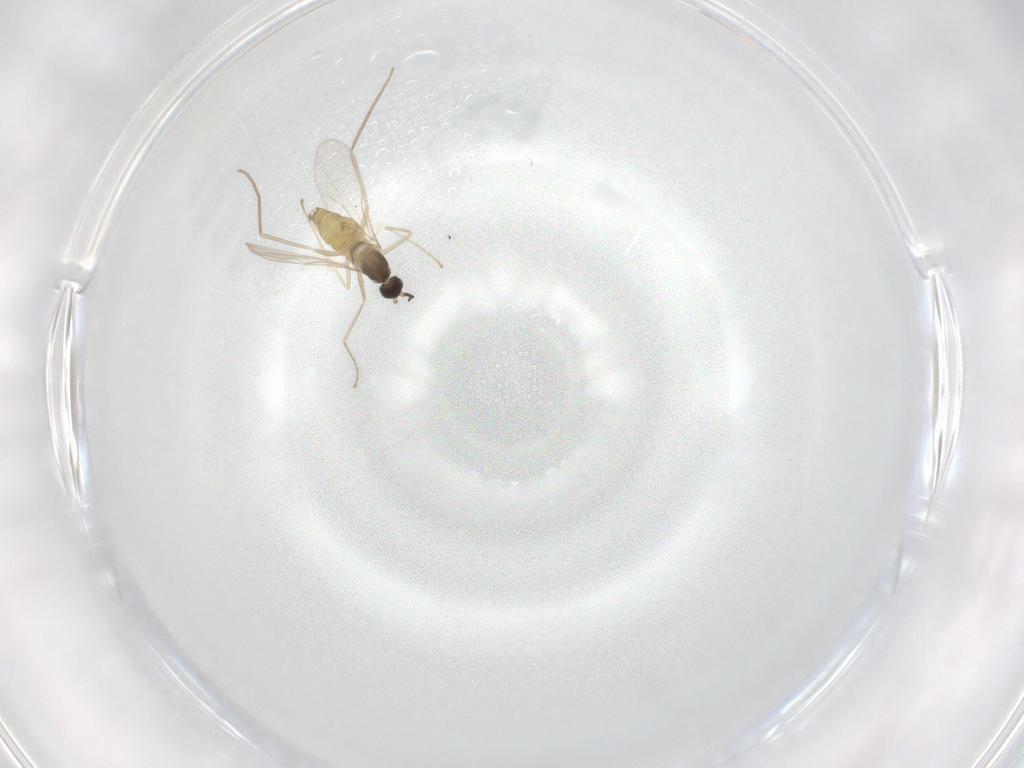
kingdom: Animalia
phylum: Arthropoda
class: Insecta
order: Diptera
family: Cecidomyiidae
